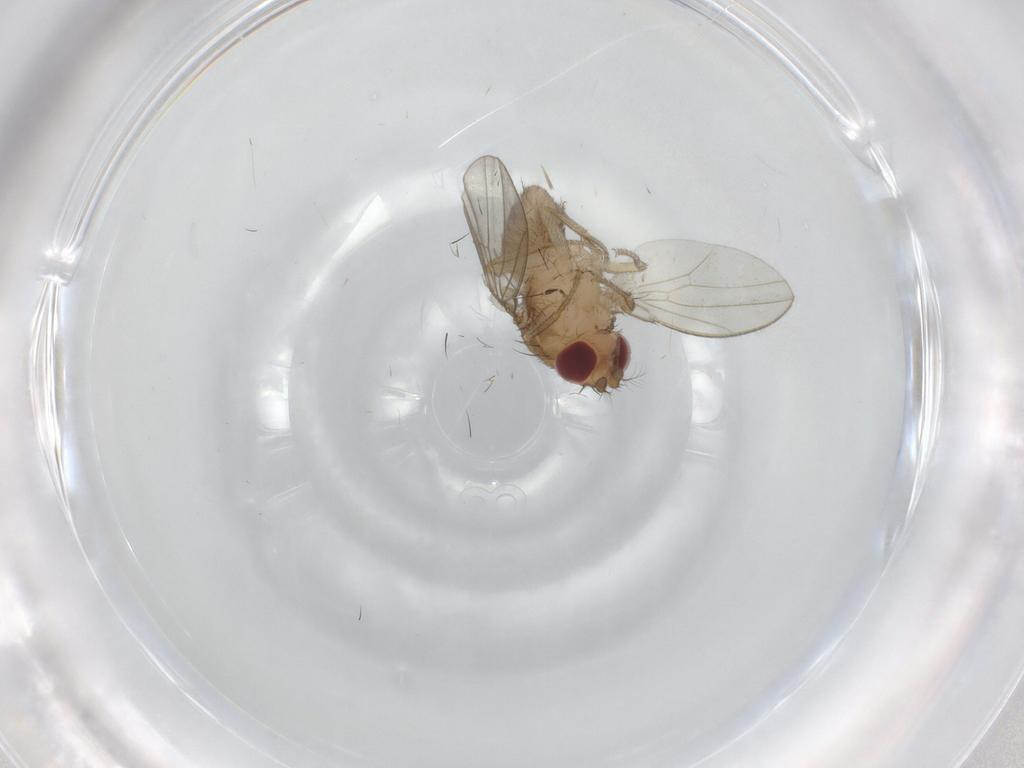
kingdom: Animalia
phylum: Arthropoda
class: Insecta
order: Diptera
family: Drosophilidae
